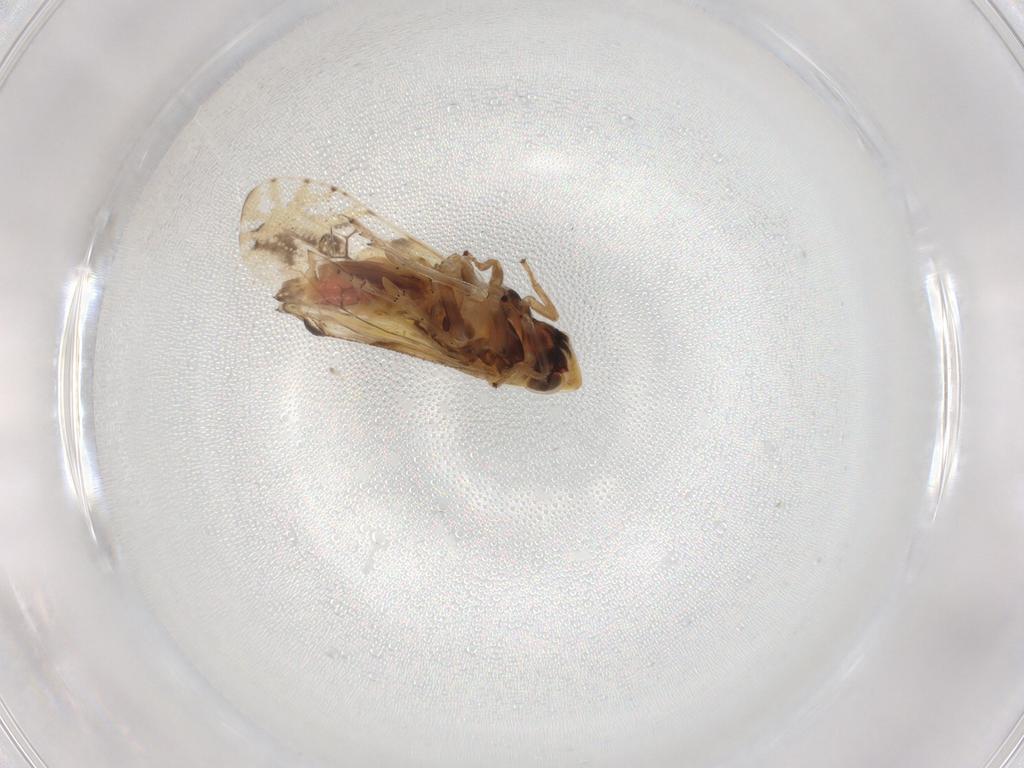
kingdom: Animalia
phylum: Arthropoda
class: Insecta
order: Hemiptera
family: Delphacidae
